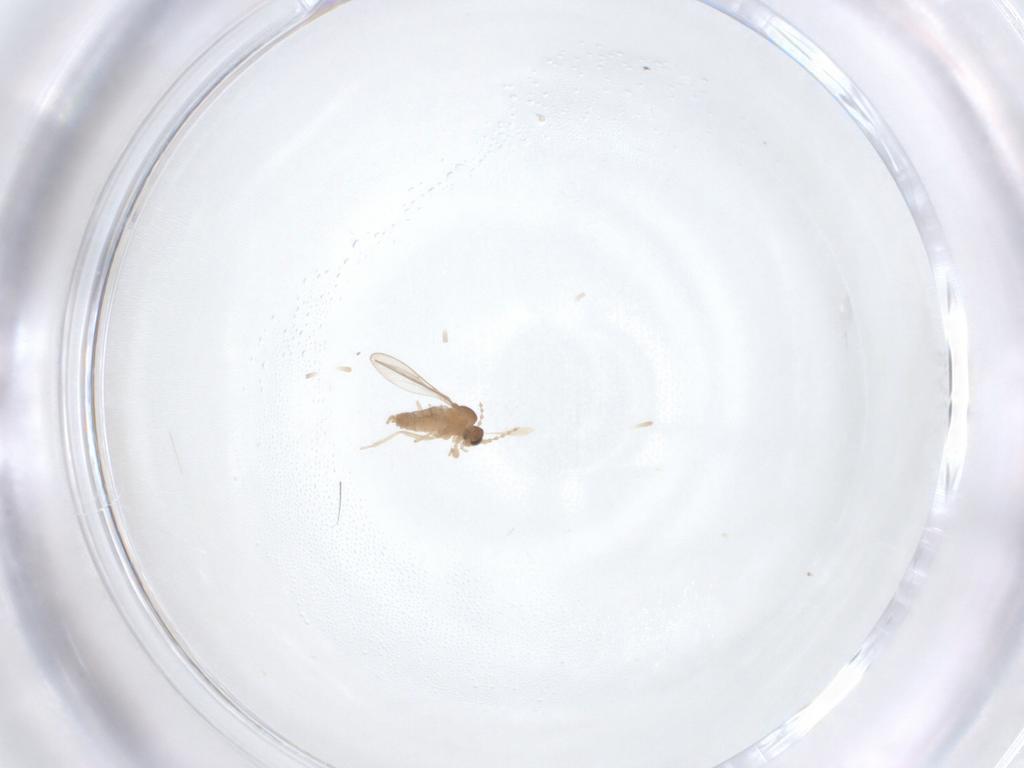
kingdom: Animalia
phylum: Arthropoda
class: Insecta
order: Diptera
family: Cecidomyiidae
